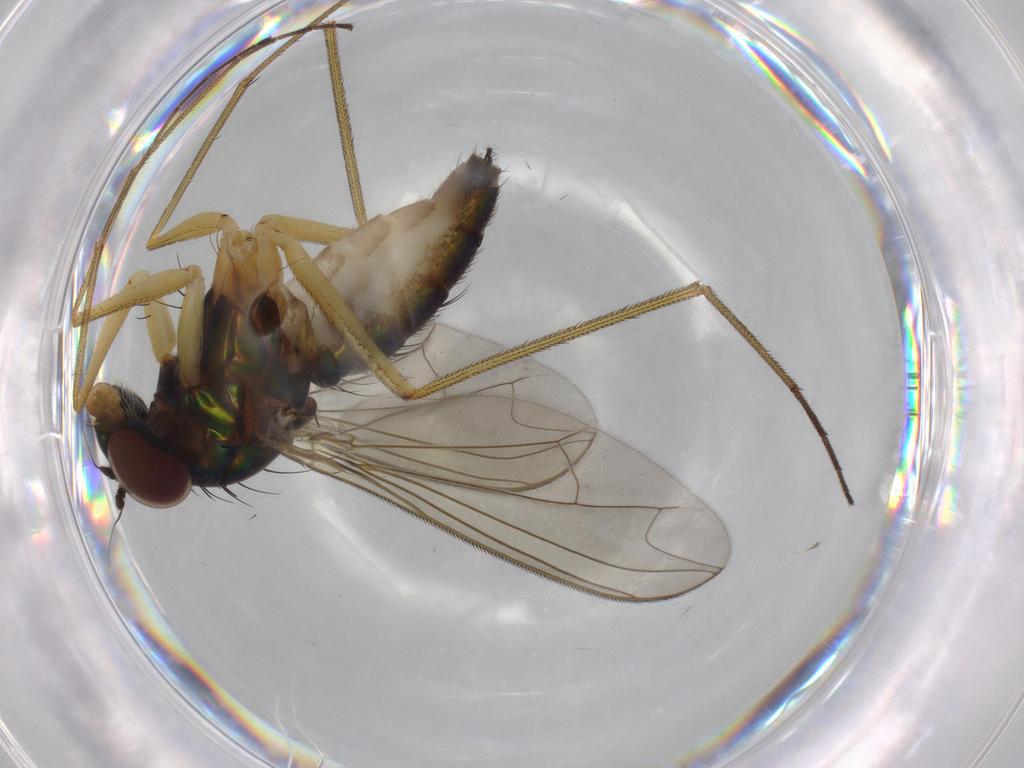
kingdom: Animalia
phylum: Arthropoda
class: Insecta
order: Diptera
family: Dolichopodidae
